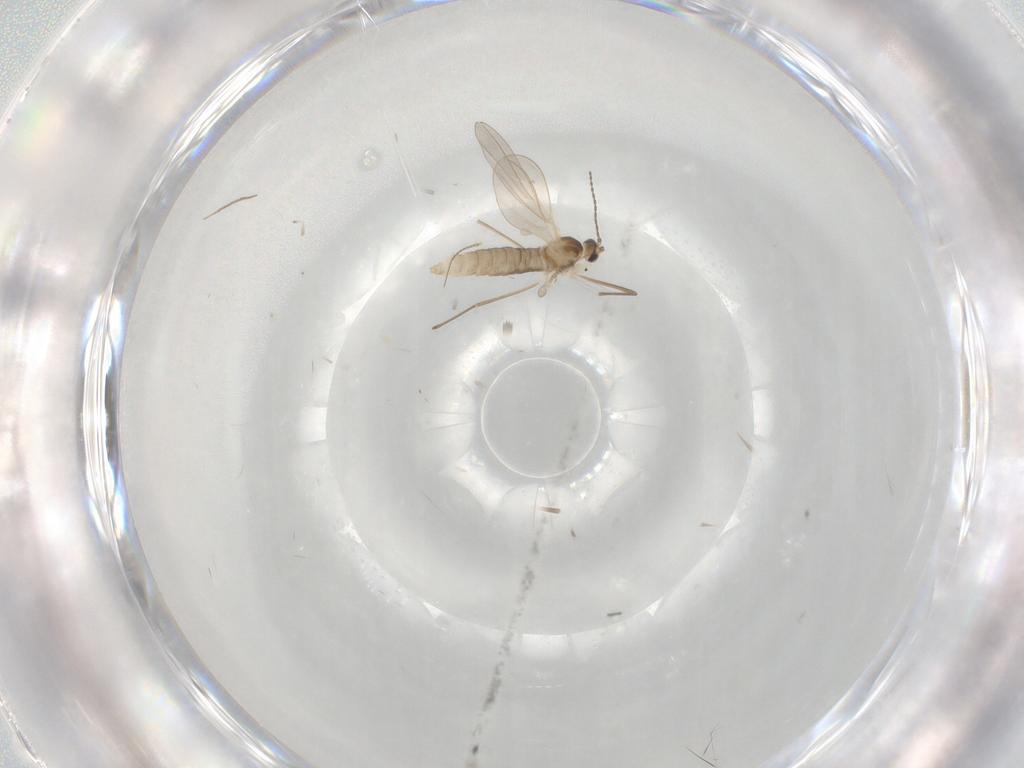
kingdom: Animalia
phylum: Arthropoda
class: Insecta
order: Diptera
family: Cecidomyiidae
